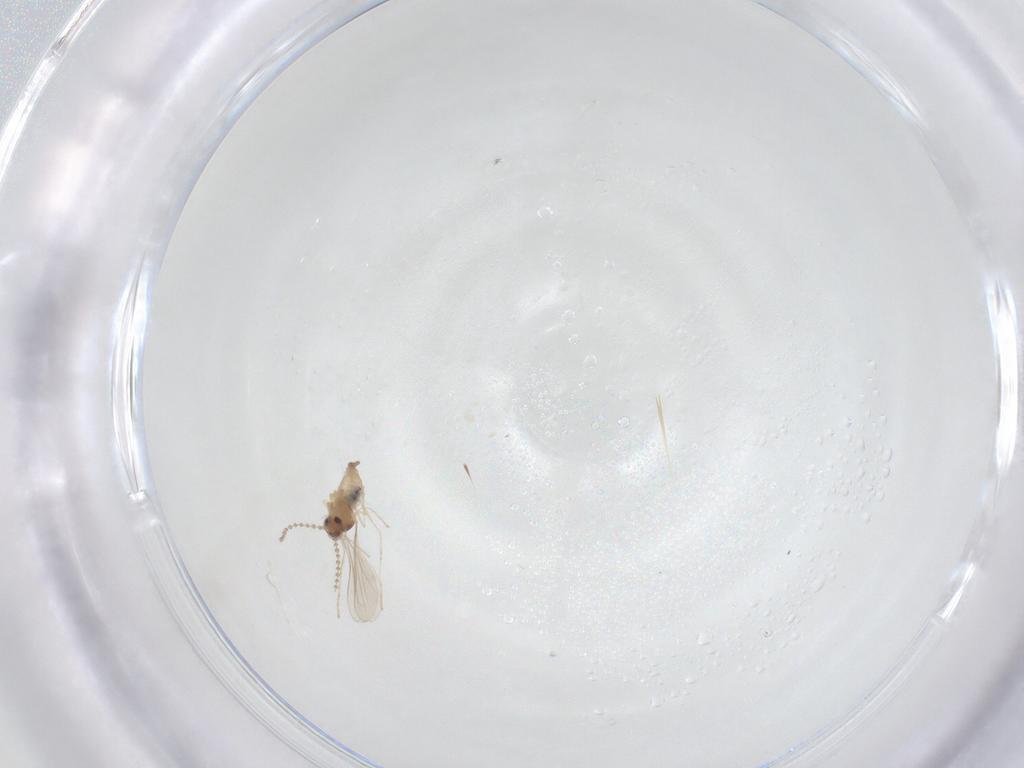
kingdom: Animalia
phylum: Arthropoda
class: Insecta
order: Diptera
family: Cecidomyiidae
